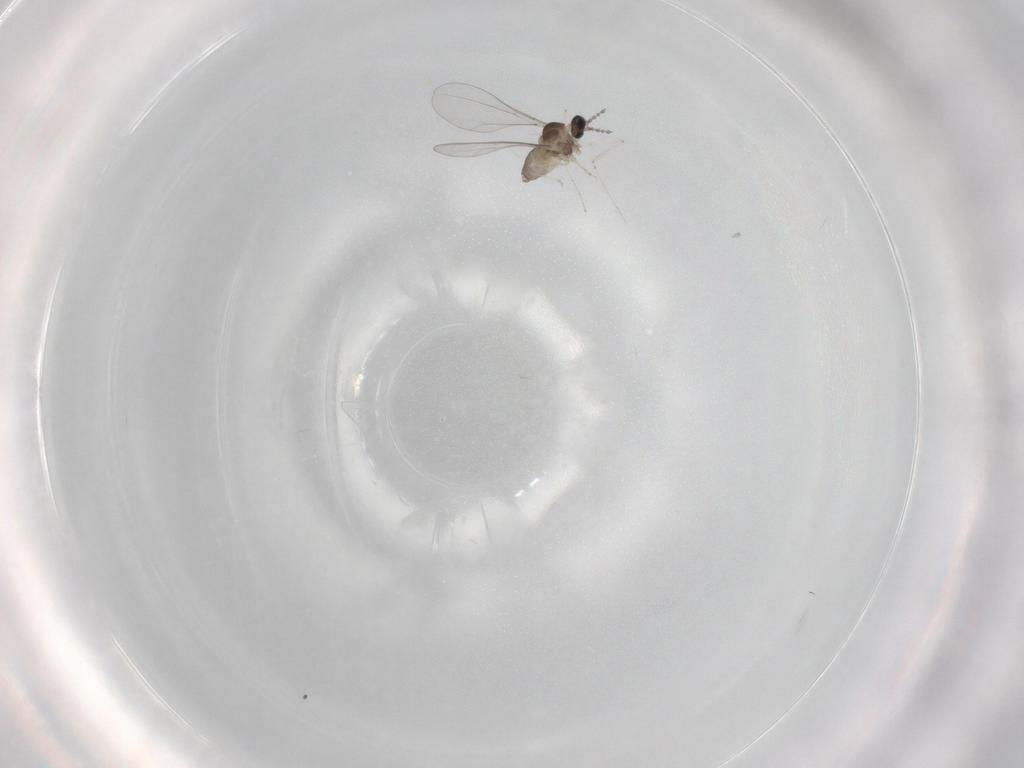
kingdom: Animalia
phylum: Arthropoda
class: Insecta
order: Diptera
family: Cecidomyiidae
